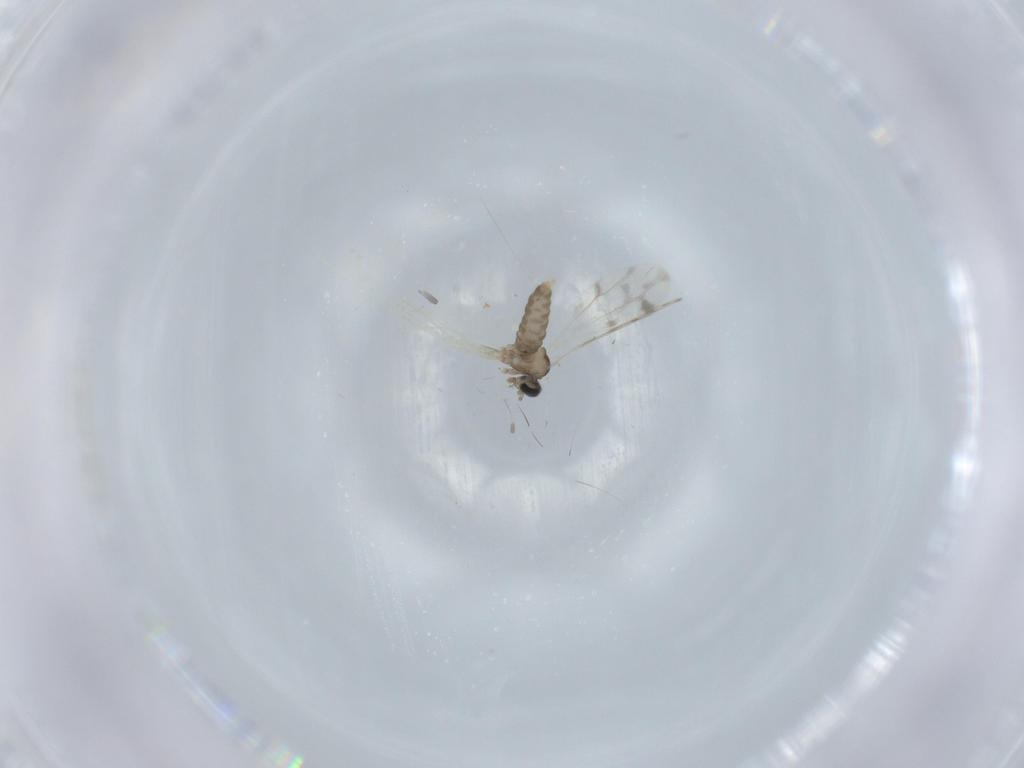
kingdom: Animalia
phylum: Arthropoda
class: Insecta
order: Diptera
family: Cecidomyiidae
